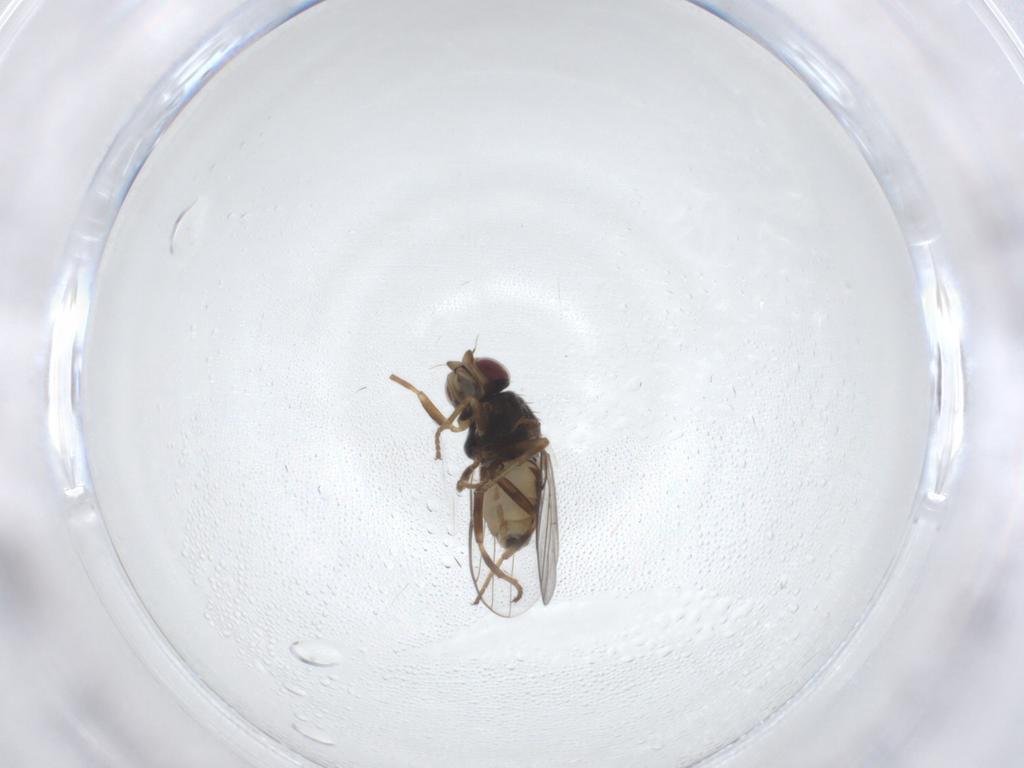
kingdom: Animalia
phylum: Arthropoda
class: Insecta
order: Diptera
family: Chloropidae
